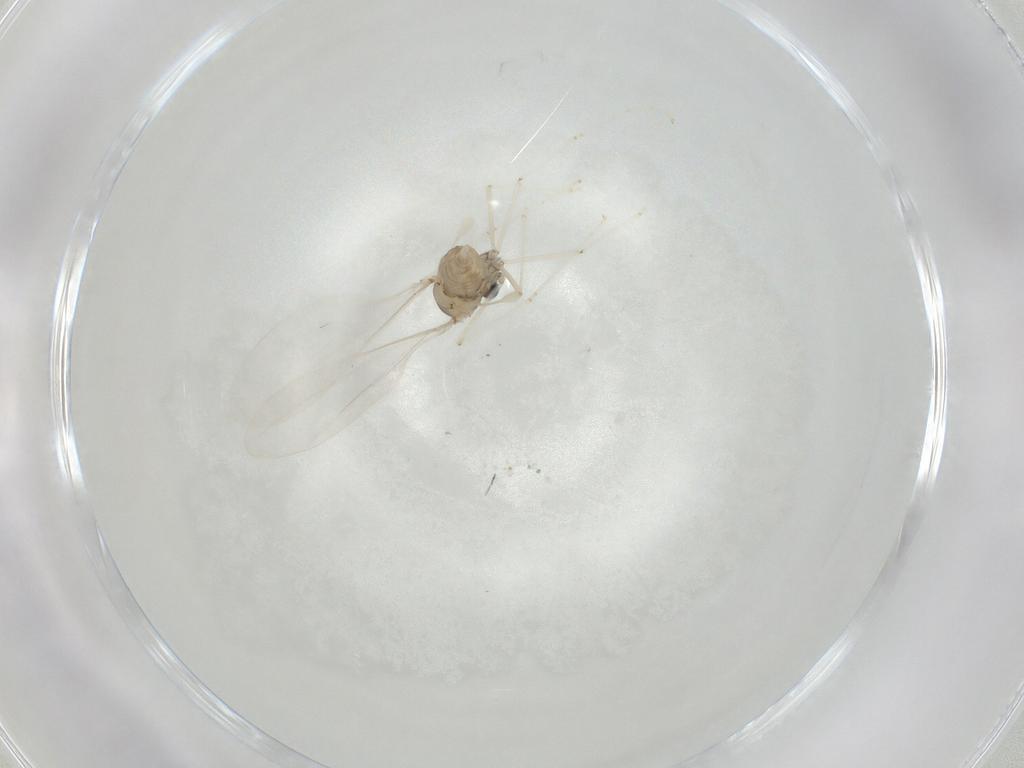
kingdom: Animalia
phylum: Arthropoda
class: Insecta
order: Diptera
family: Cecidomyiidae
